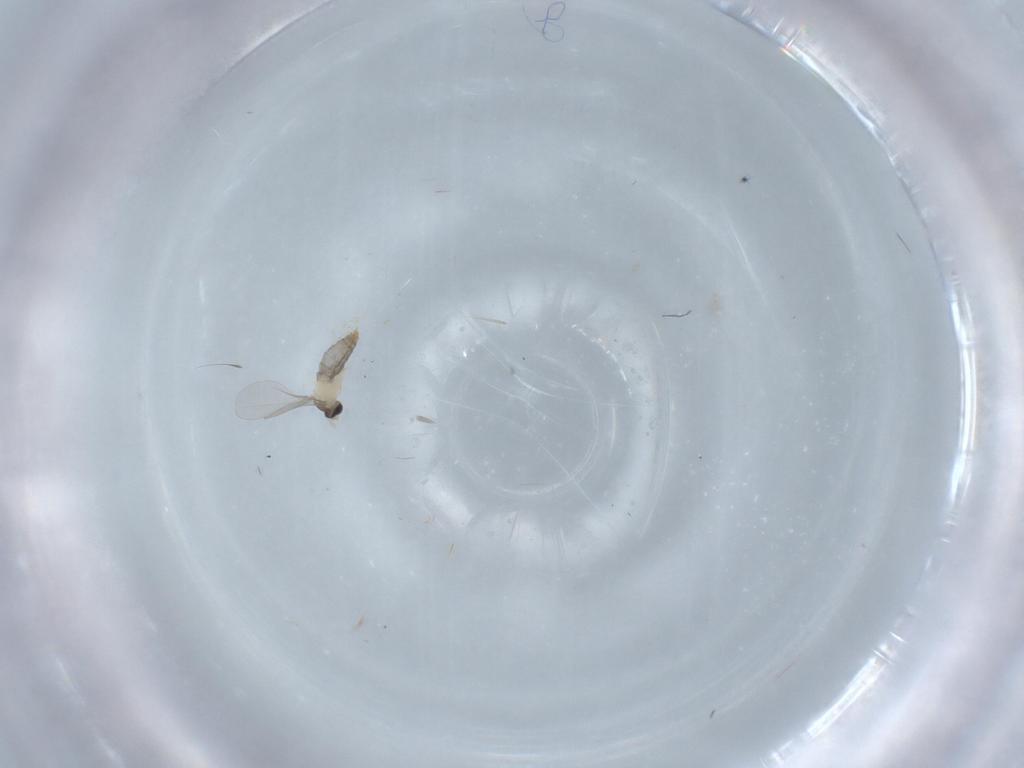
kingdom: Animalia
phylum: Arthropoda
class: Insecta
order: Diptera
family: Cecidomyiidae
